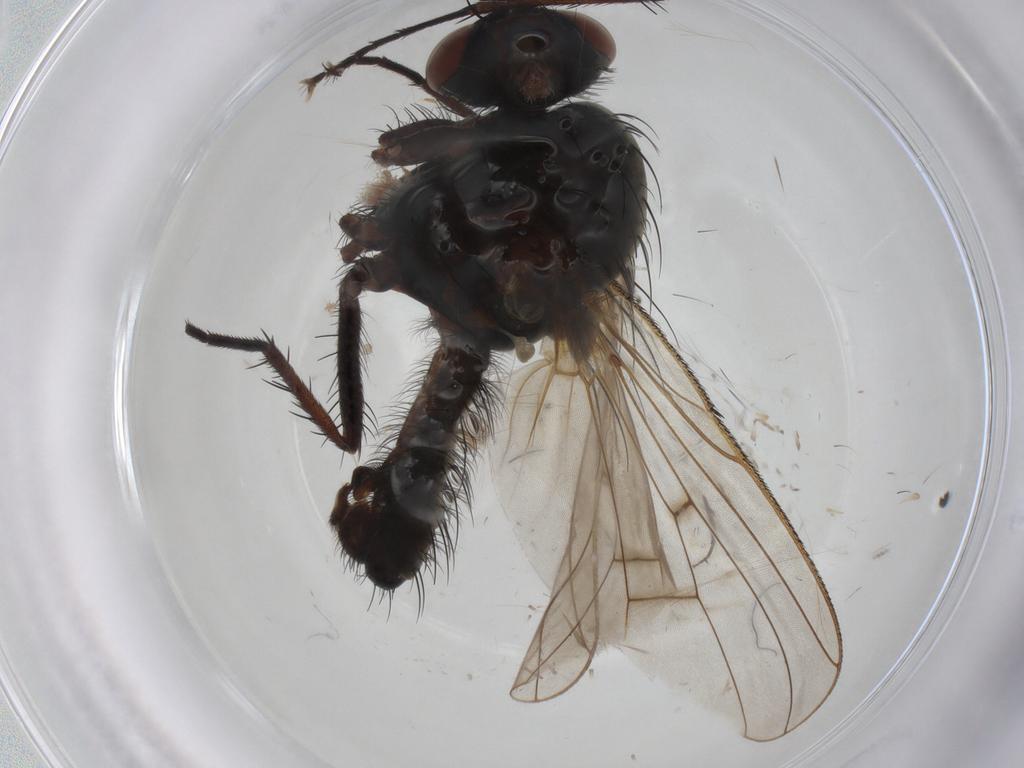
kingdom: Animalia
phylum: Arthropoda
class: Insecta
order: Diptera
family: Anthomyiidae
